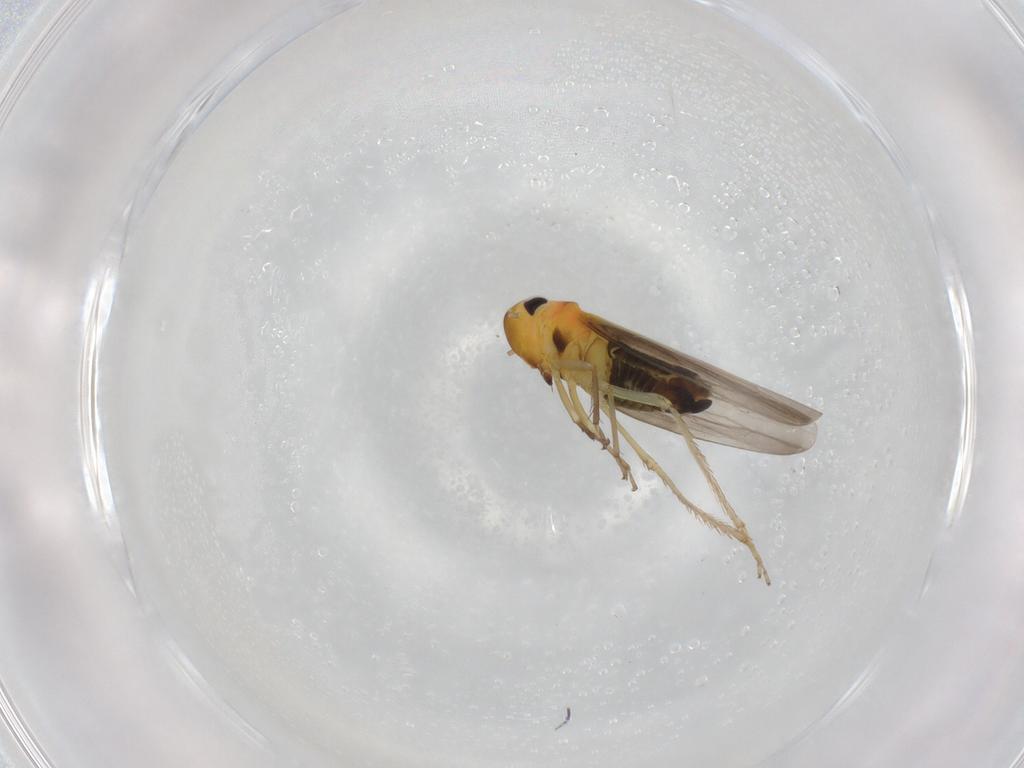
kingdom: Animalia
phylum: Arthropoda
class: Insecta
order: Hemiptera
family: Cicadellidae
